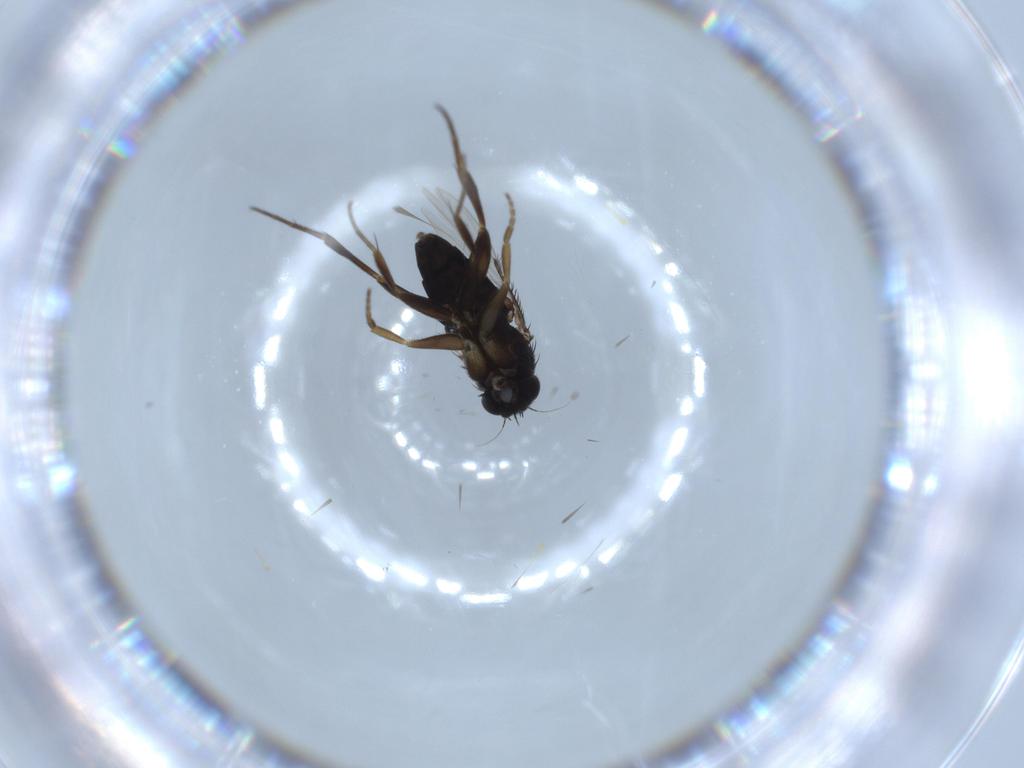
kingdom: Animalia
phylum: Arthropoda
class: Insecta
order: Diptera
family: Phoridae
